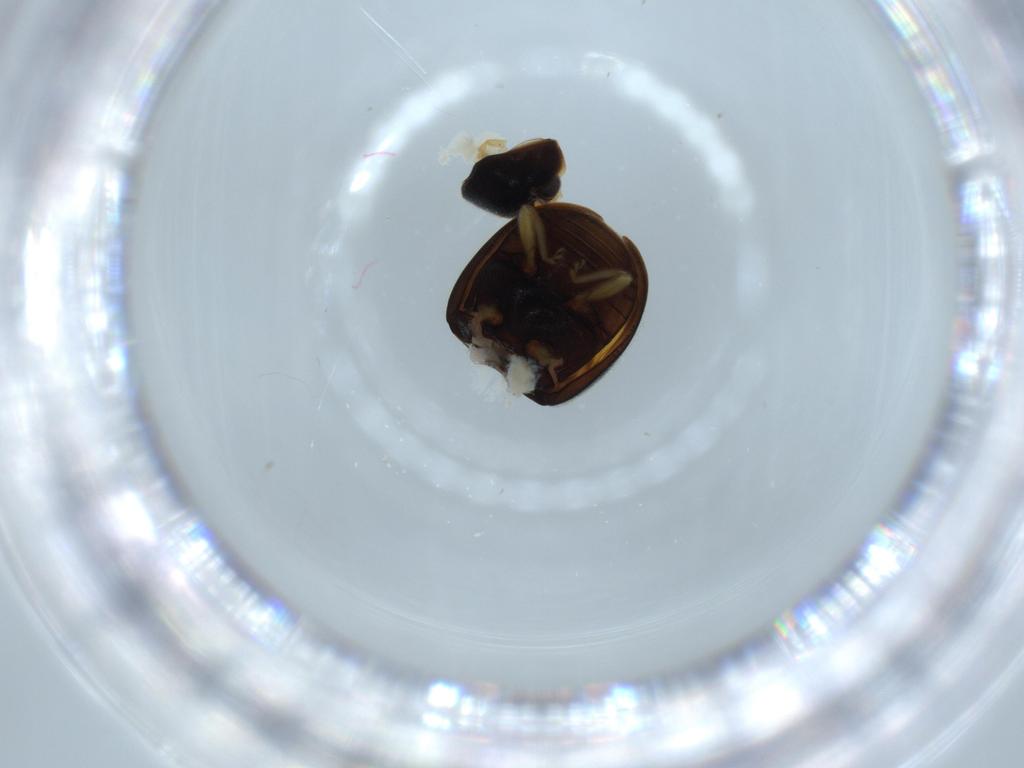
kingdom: Animalia
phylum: Arthropoda
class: Insecta
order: Coleoptera
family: Coccinellidae
